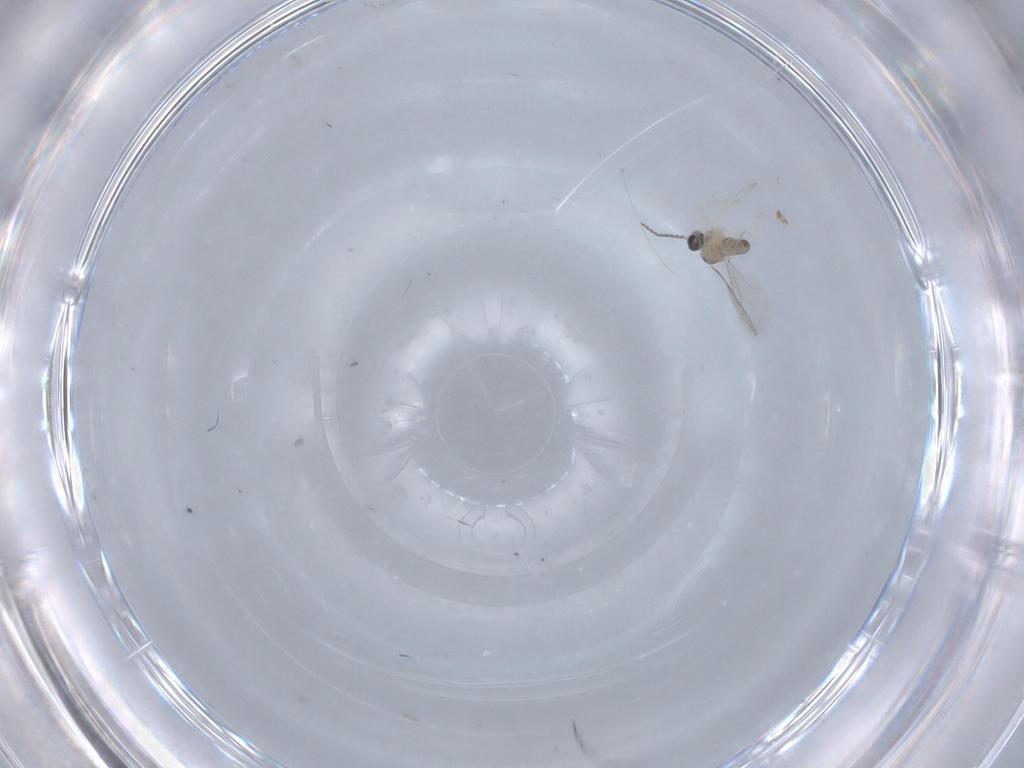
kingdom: Animalia
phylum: Arthropoda
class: Insecta
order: Diptera
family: Cecidomyiidae
